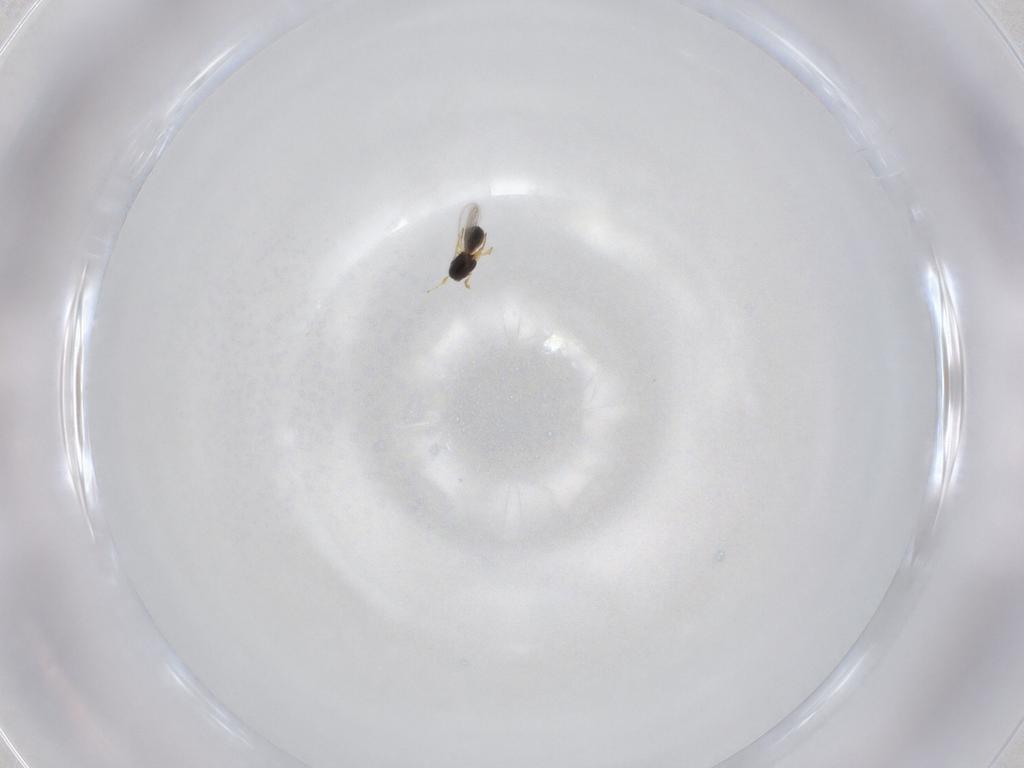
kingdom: Animalia
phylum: Arthropoda
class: Insecta
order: Hymenoptera
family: Scelionidae
